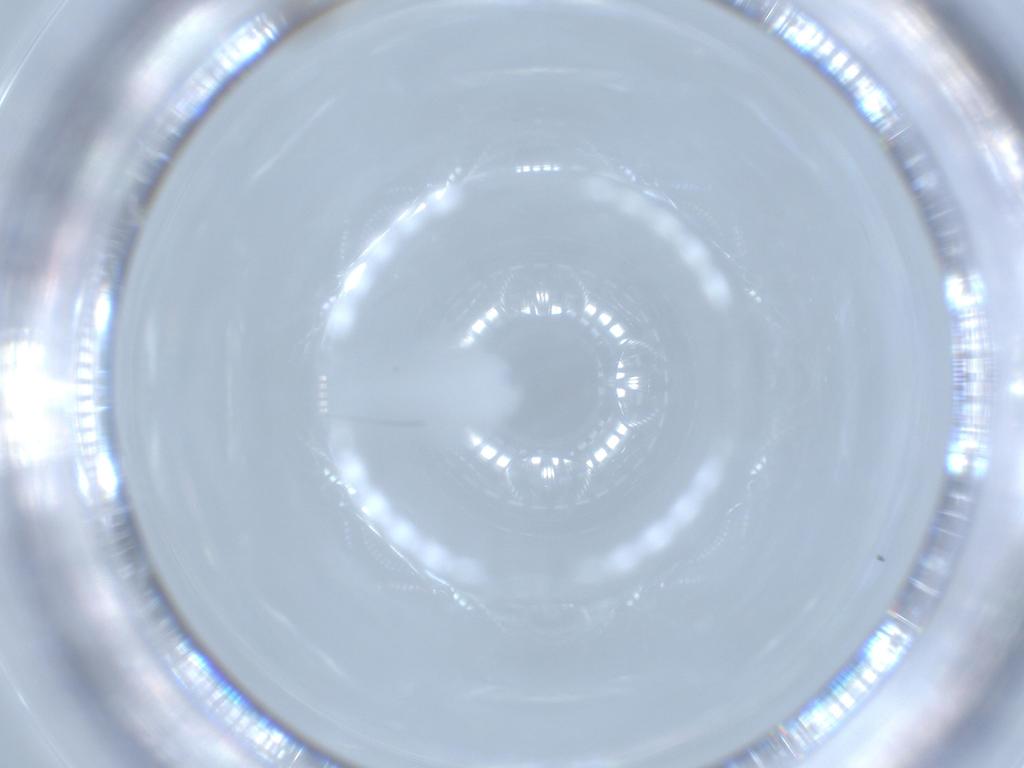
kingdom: Animalia
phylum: Arthropoda
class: Insecta
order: Diptera
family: Ceratopogonidae
